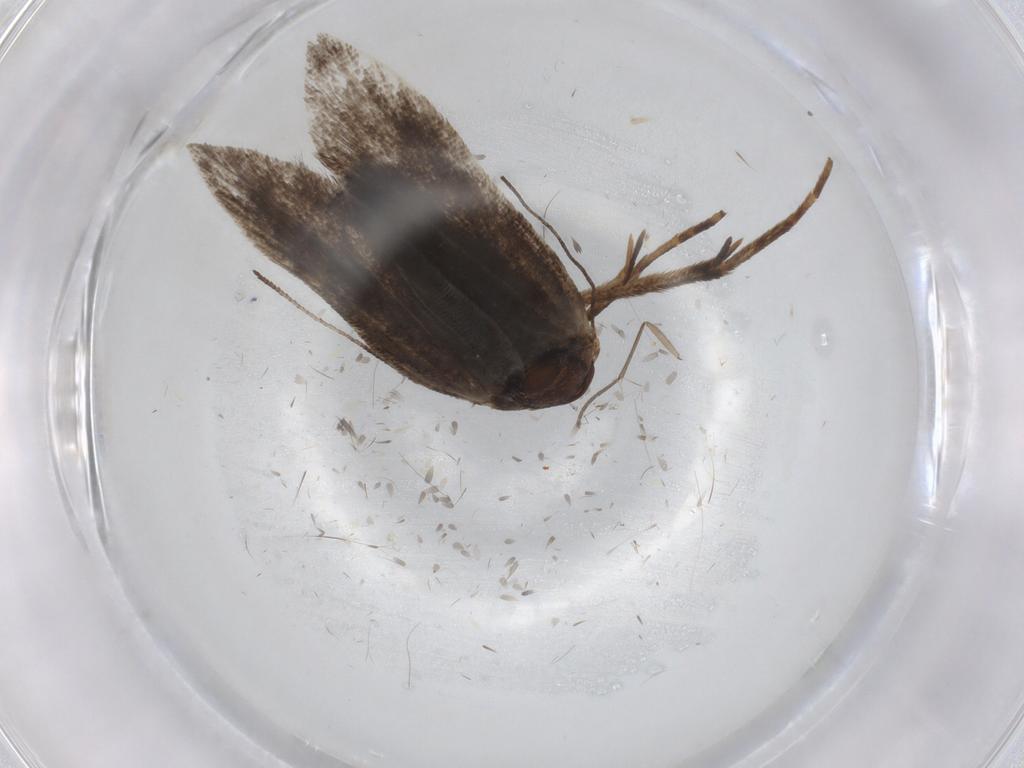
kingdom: Animalia
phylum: Arthropoda
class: Insecta
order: Lepidoptera
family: Noctuidae
